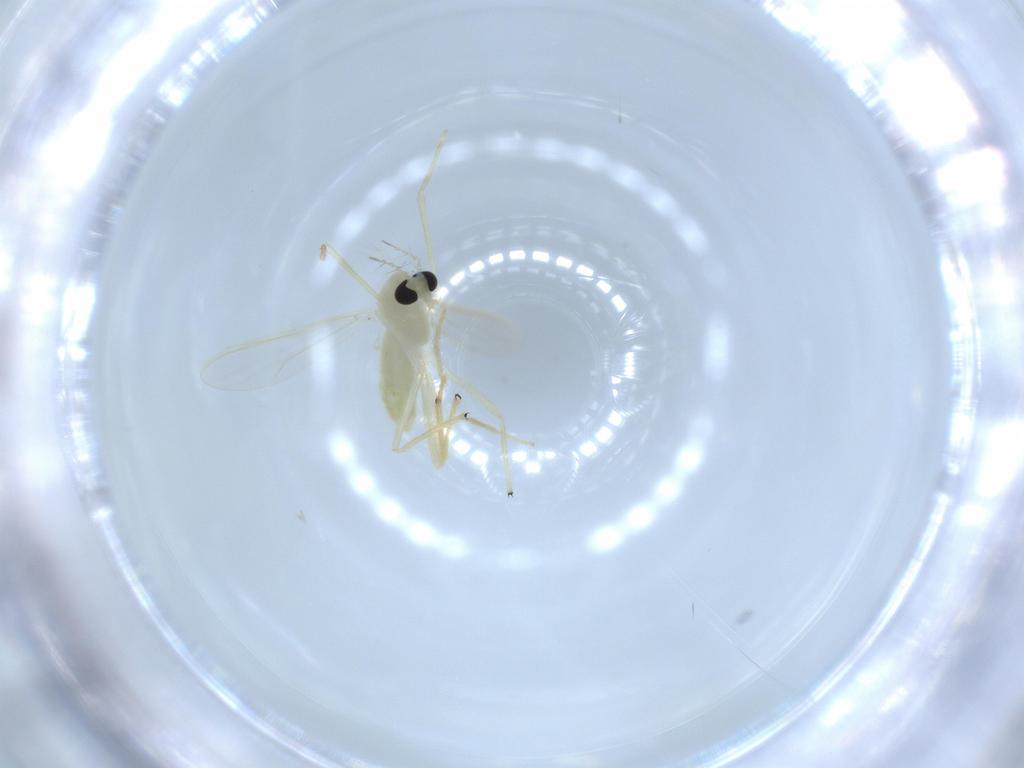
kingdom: Animalia
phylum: Arthropoda
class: Insecta
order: Diptera
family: Chironomidae
